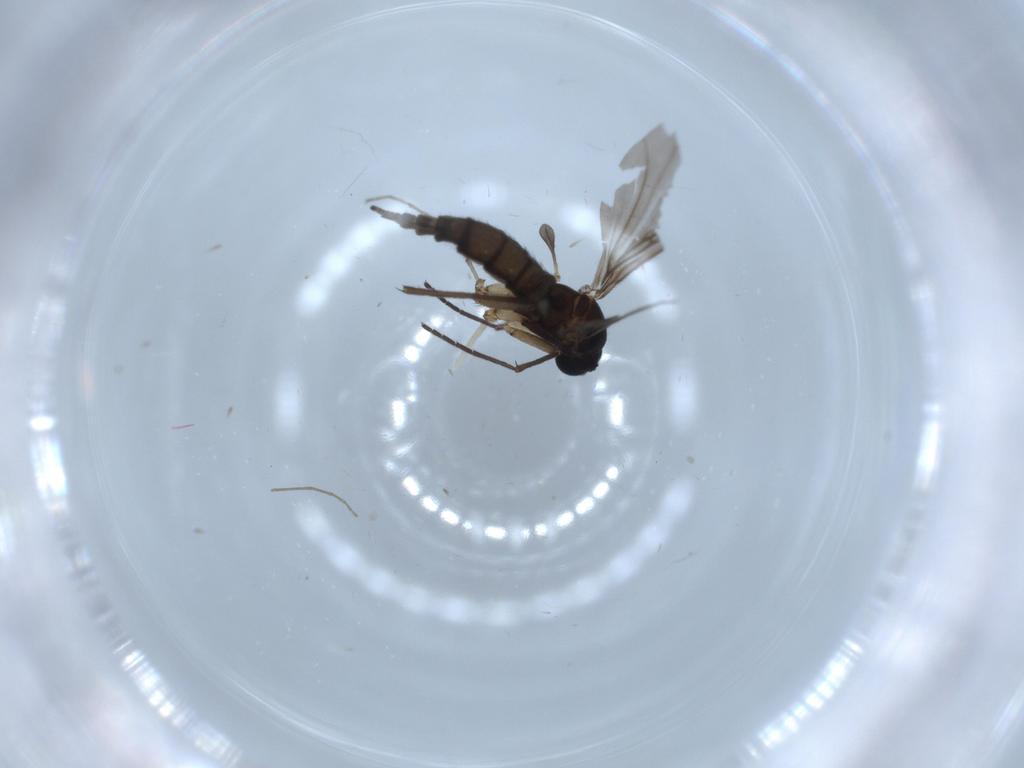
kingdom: Animalia
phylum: Arthropoda
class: Insecta
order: Diptera
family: Sciaridae
